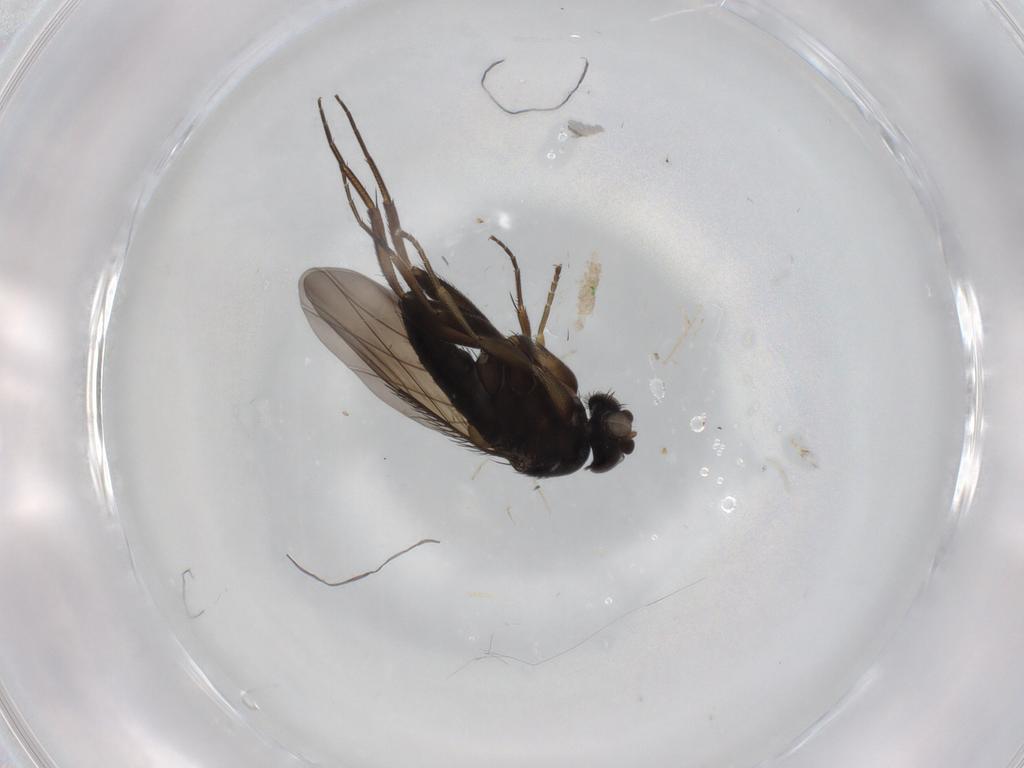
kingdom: Animalia
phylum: Arthropoda
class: Insecta
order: Diptera
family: Phoridae
